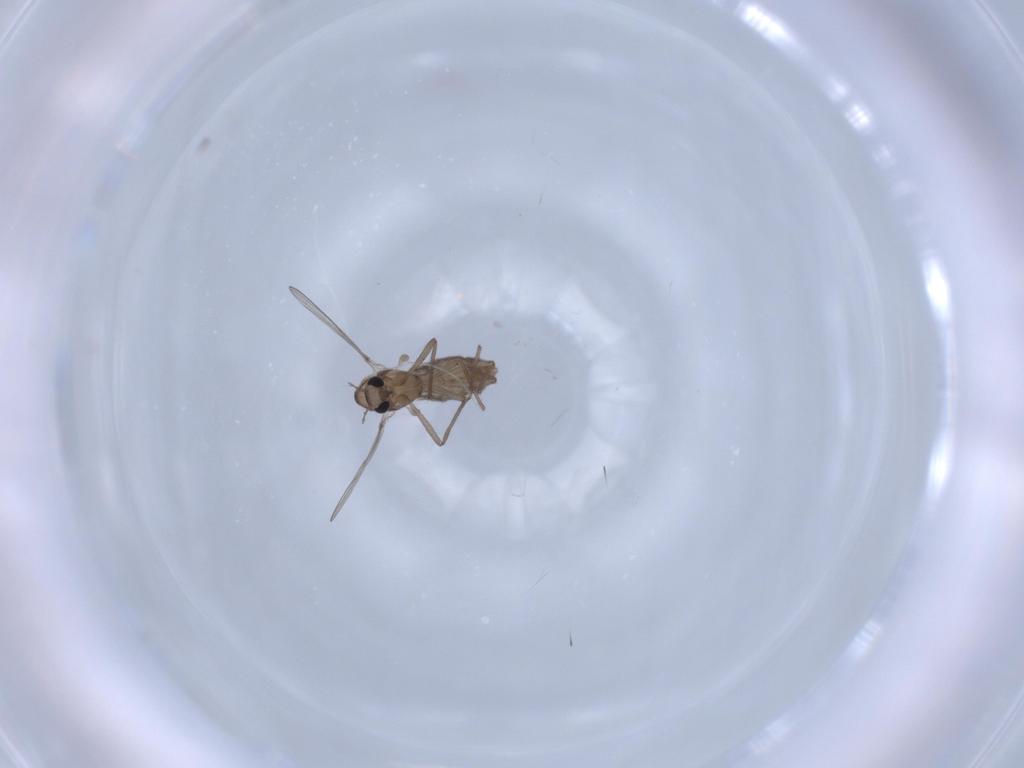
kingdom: Animalia
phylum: Arthropoda
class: Insecta
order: Diptera
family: Chironomidae
